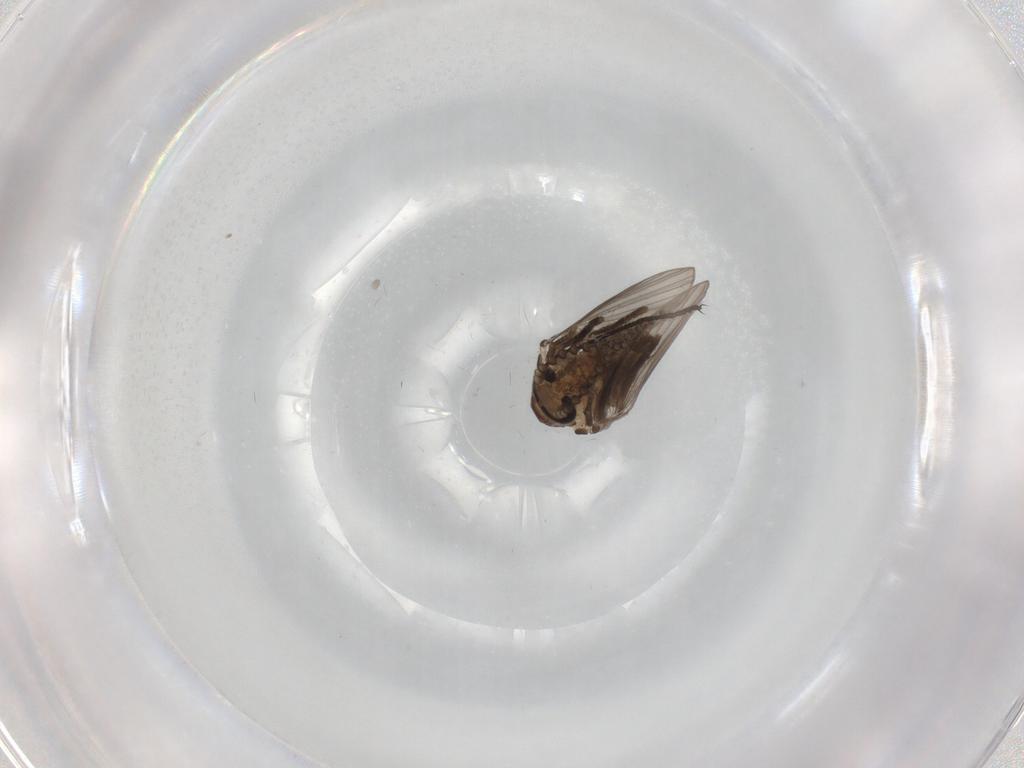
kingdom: Animalia
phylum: Arthropoda
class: Insecta
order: Diptera
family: Psychodidae
